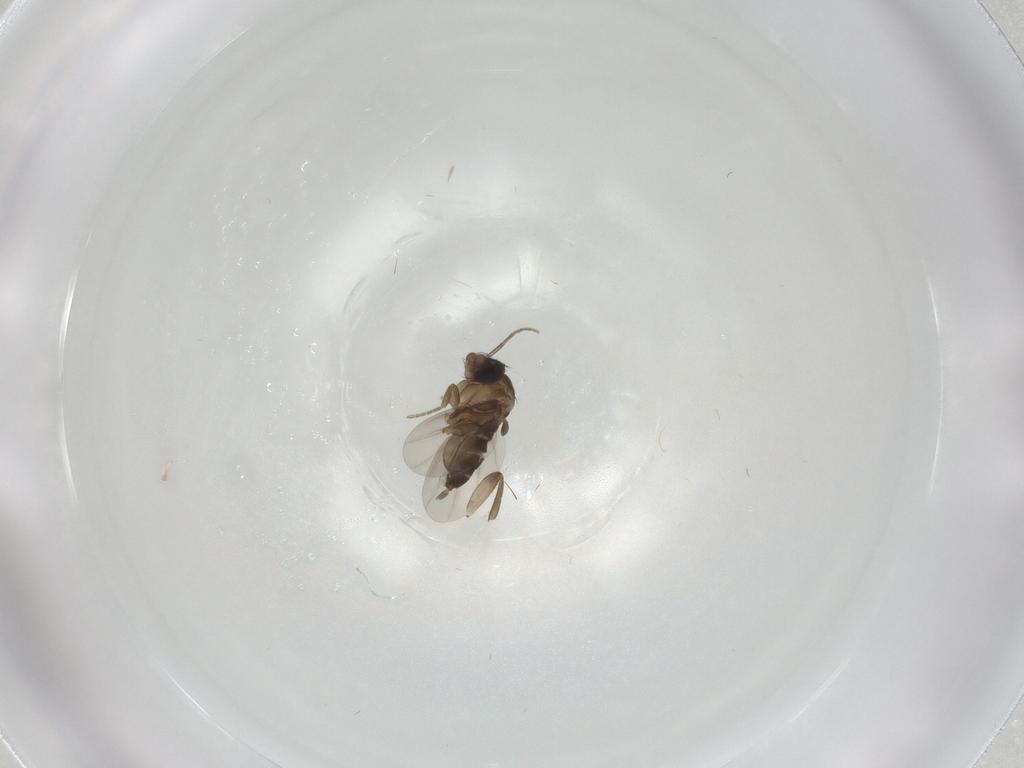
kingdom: Animalia
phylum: Arthropoda
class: Insecta
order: Diptera
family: Phoridae
